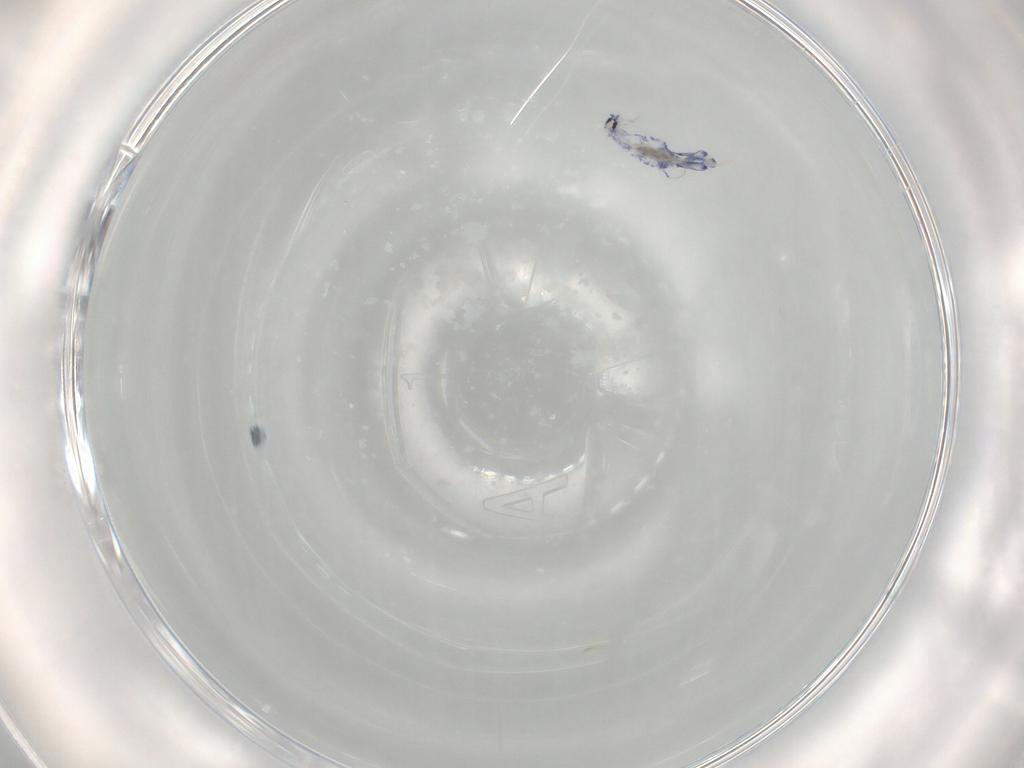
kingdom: Animalia
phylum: Arthropoda
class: Collembola
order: Entomobryomorpha
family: Entomobryidae
